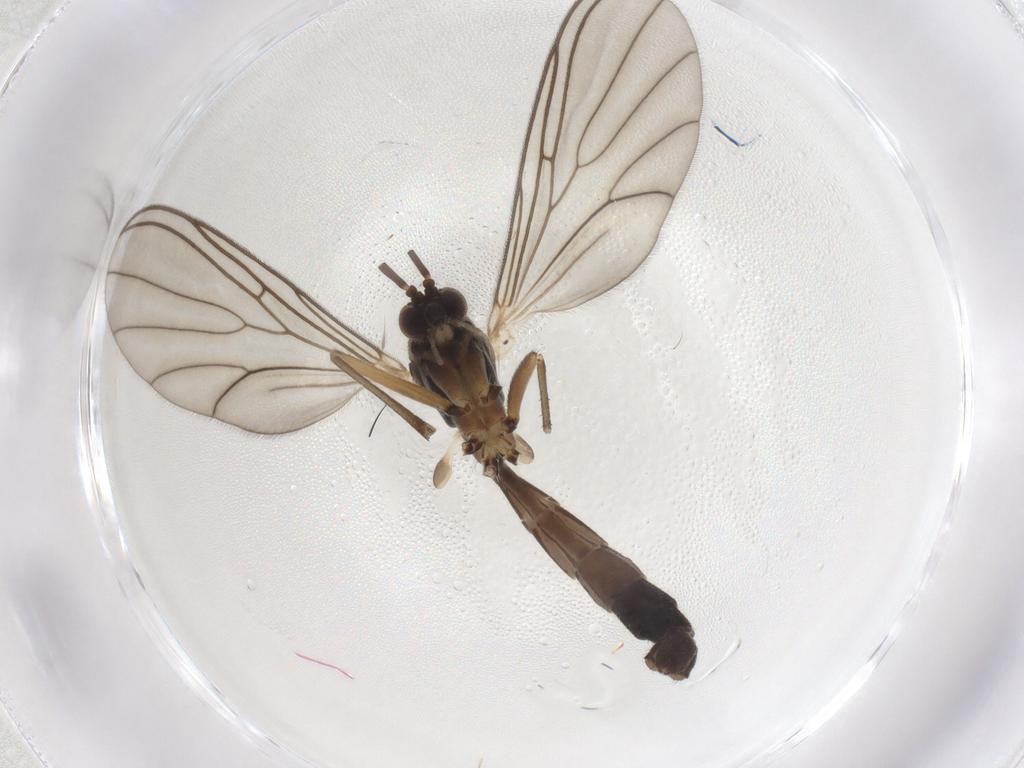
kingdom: Animalia
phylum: Arthropoda
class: Insecta
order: Diptera
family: Mycetophilidae
